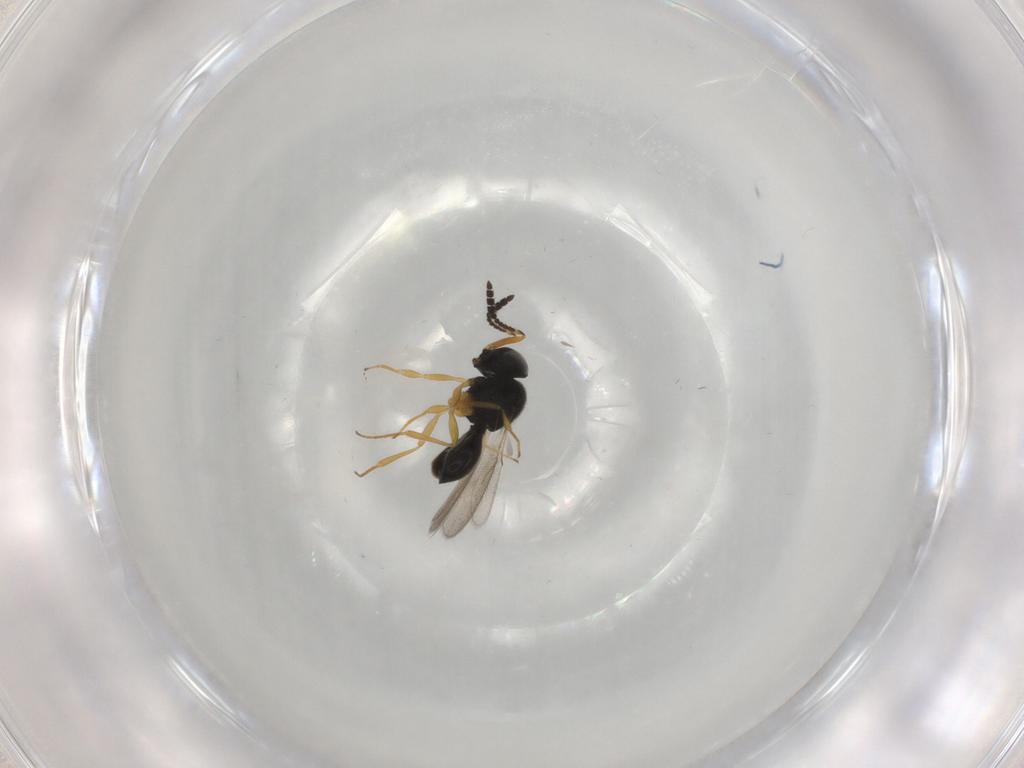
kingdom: Animalia
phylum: Arthropoda
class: Insecta
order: Hymenoptera
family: Scelionidae
